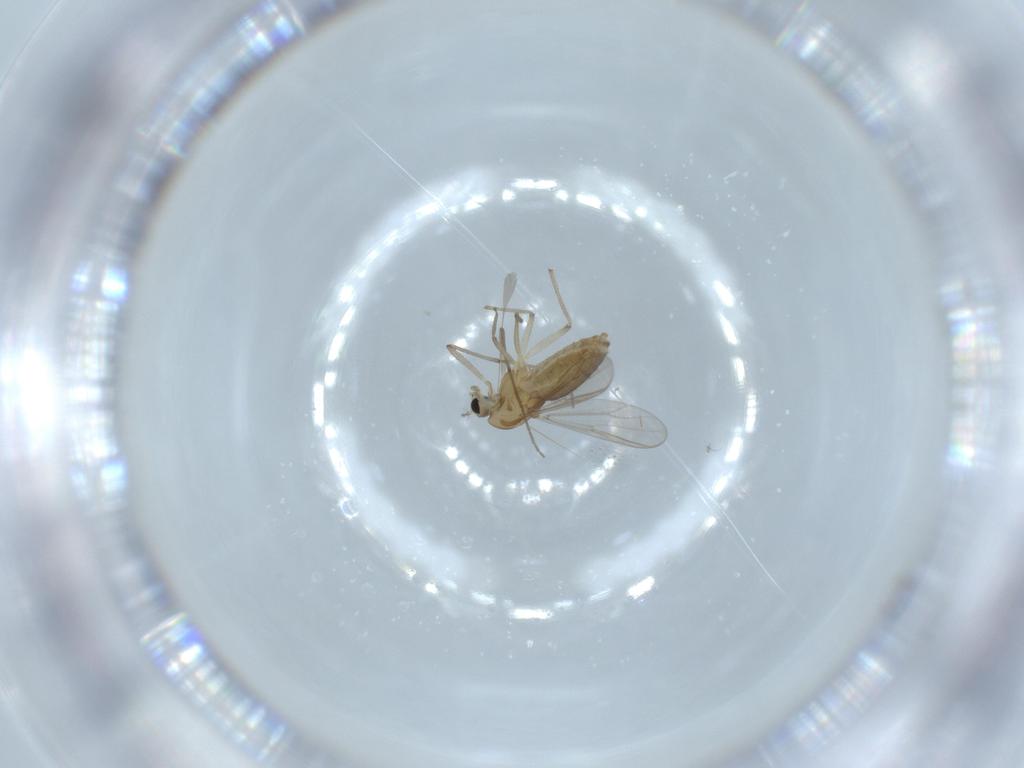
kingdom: Animalia
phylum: Arthropoda
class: Insecta
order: Diptera
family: Chironomidae
